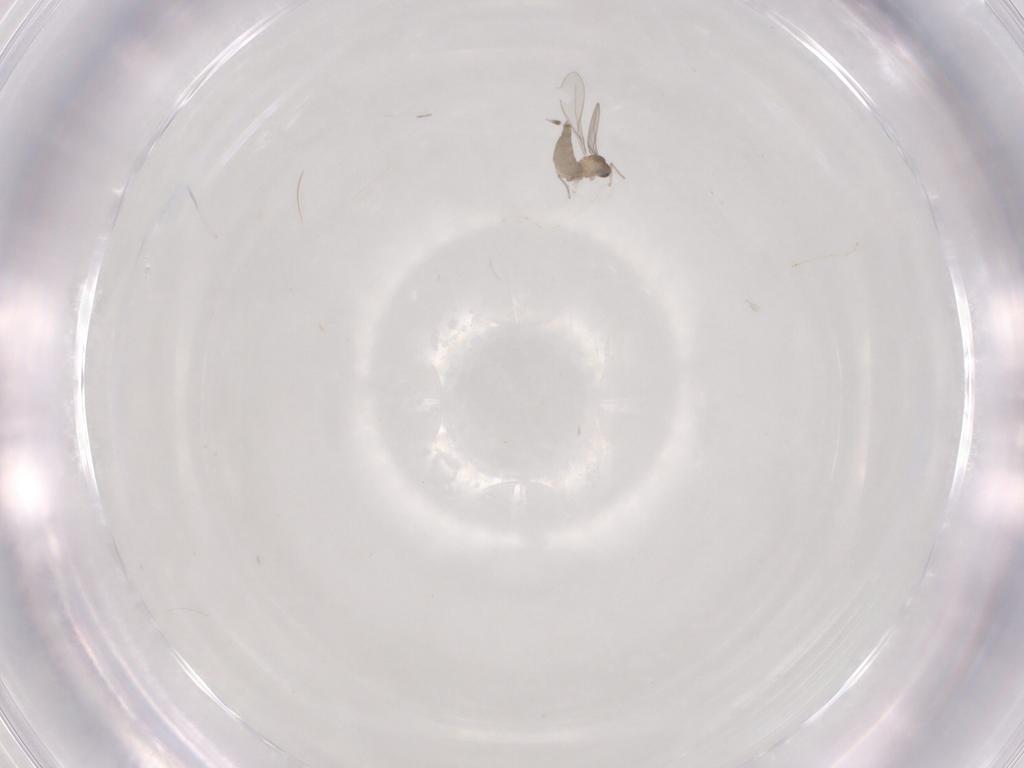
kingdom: Animalia
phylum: Arthropoda
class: Insecta
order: Diptera
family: Cecidomyiidae
